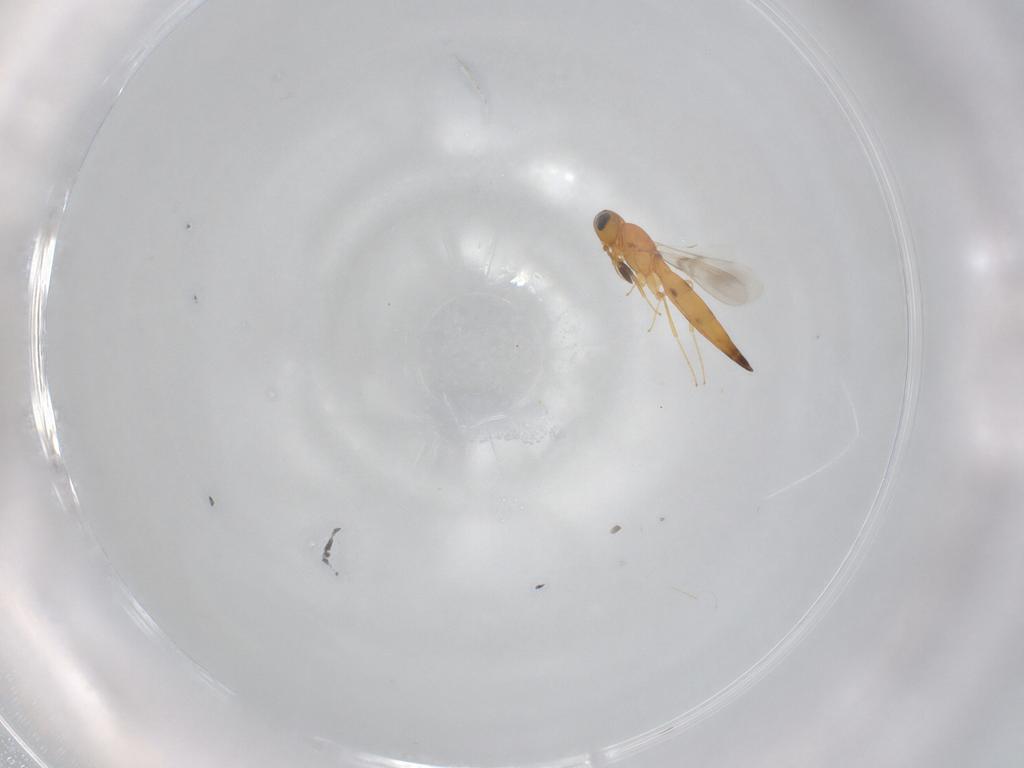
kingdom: Animalia
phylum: Arthropoda
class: Insecta
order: Hymenoptera
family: Scelionidae
